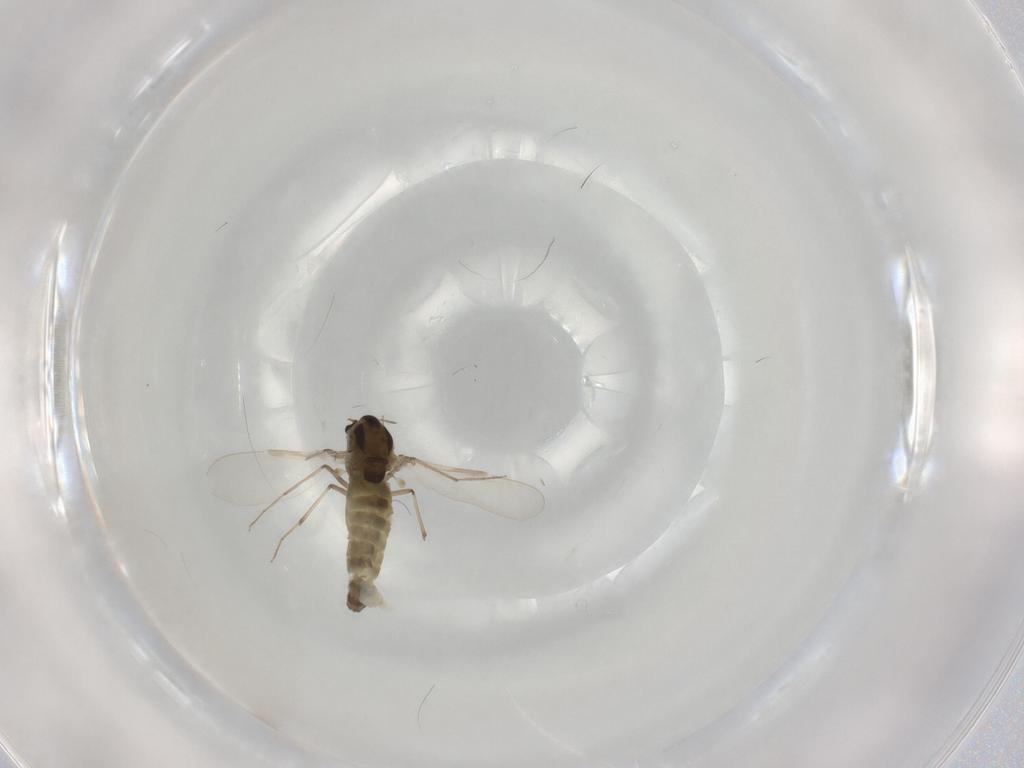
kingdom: Animalia
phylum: Arthropoda
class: Insecta
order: Diptera
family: Chironomidae
